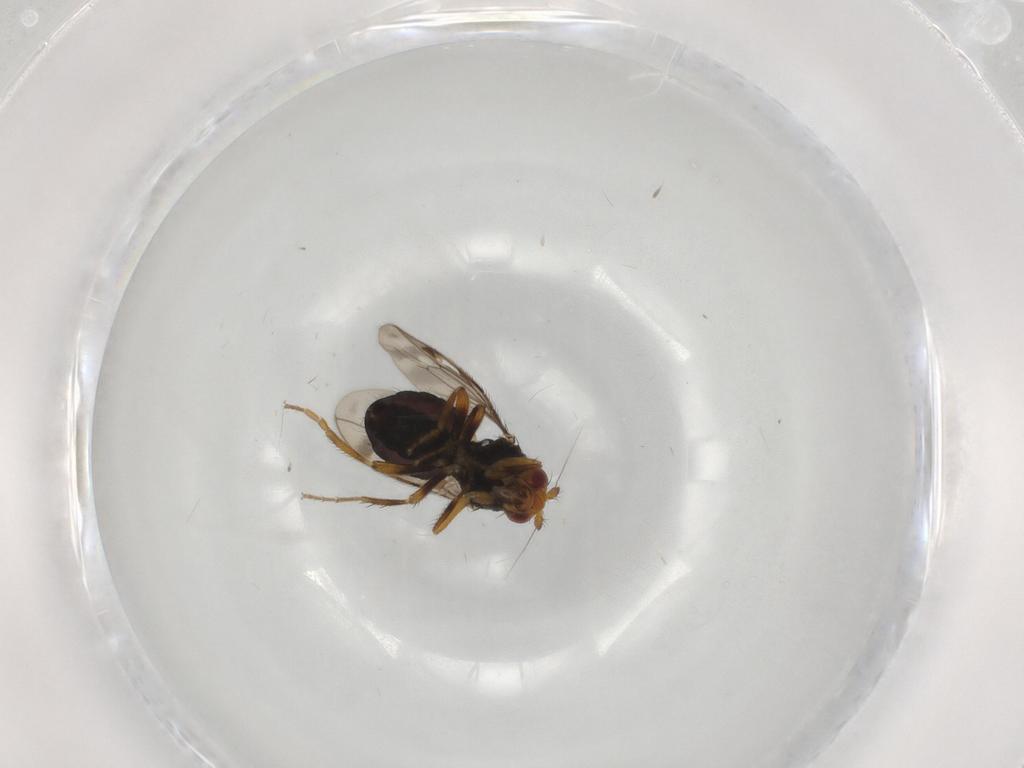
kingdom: Animalia
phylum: Arthropoda
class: Insecta
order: Diptera
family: Sphaeroceridae
